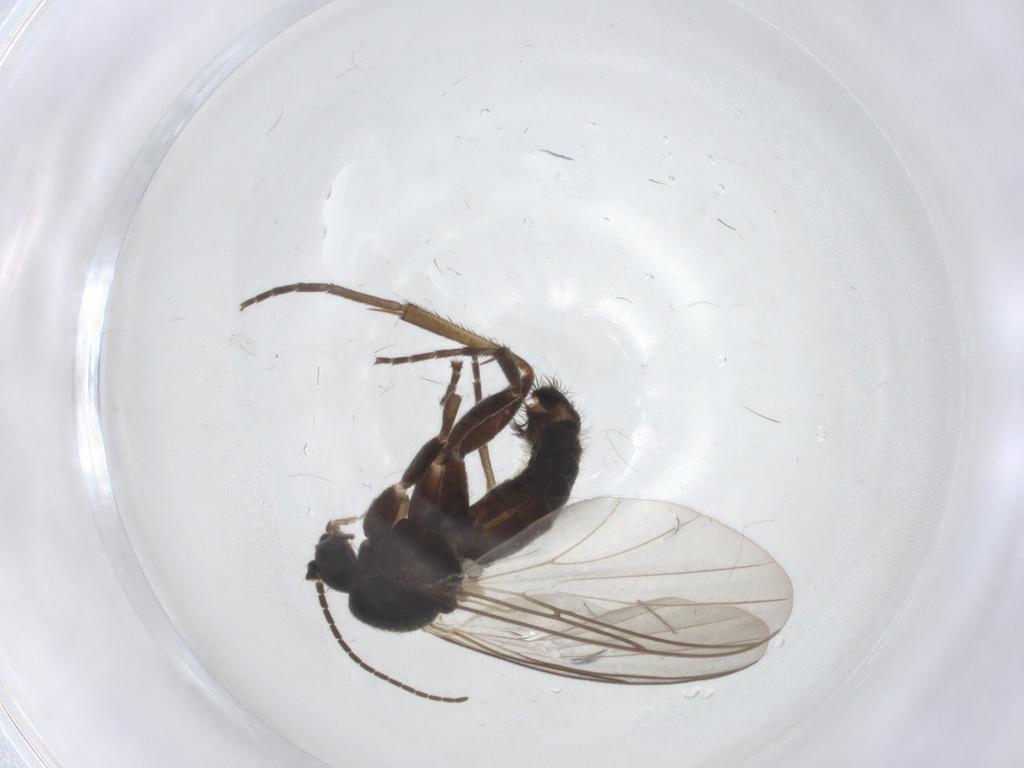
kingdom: Animalia
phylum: Arthropoda
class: Insecta
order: Diptera
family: Mycetophilidae
